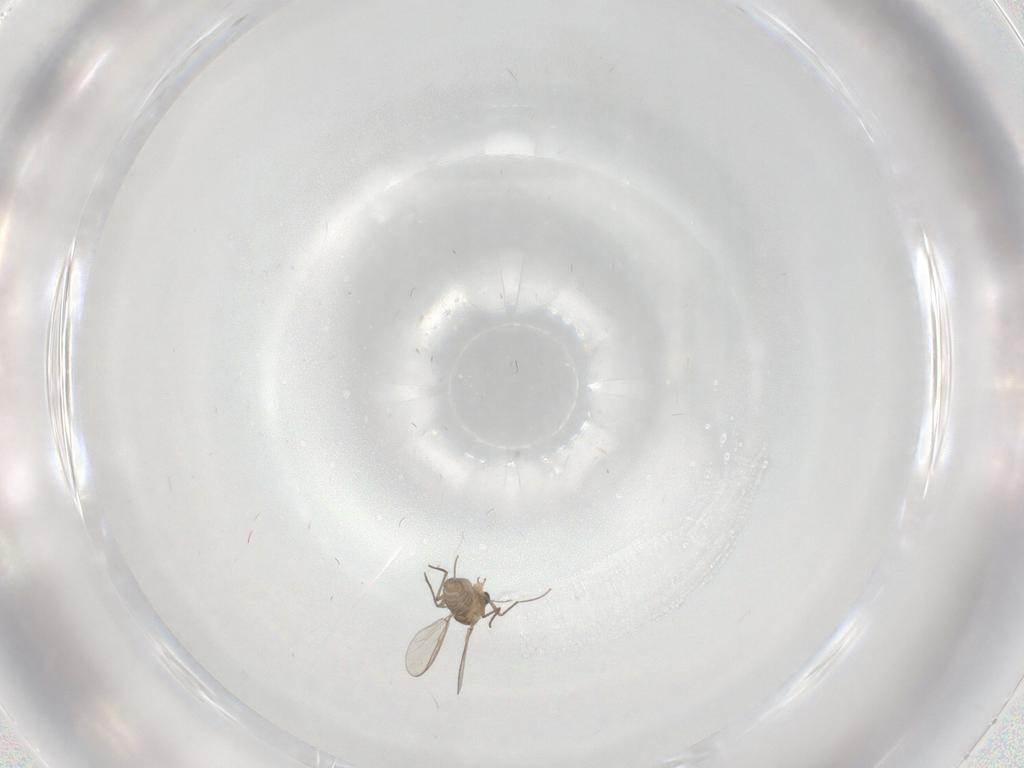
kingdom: Animalia
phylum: Arthropoda
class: Insecta
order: Diptera
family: Chironomidae
